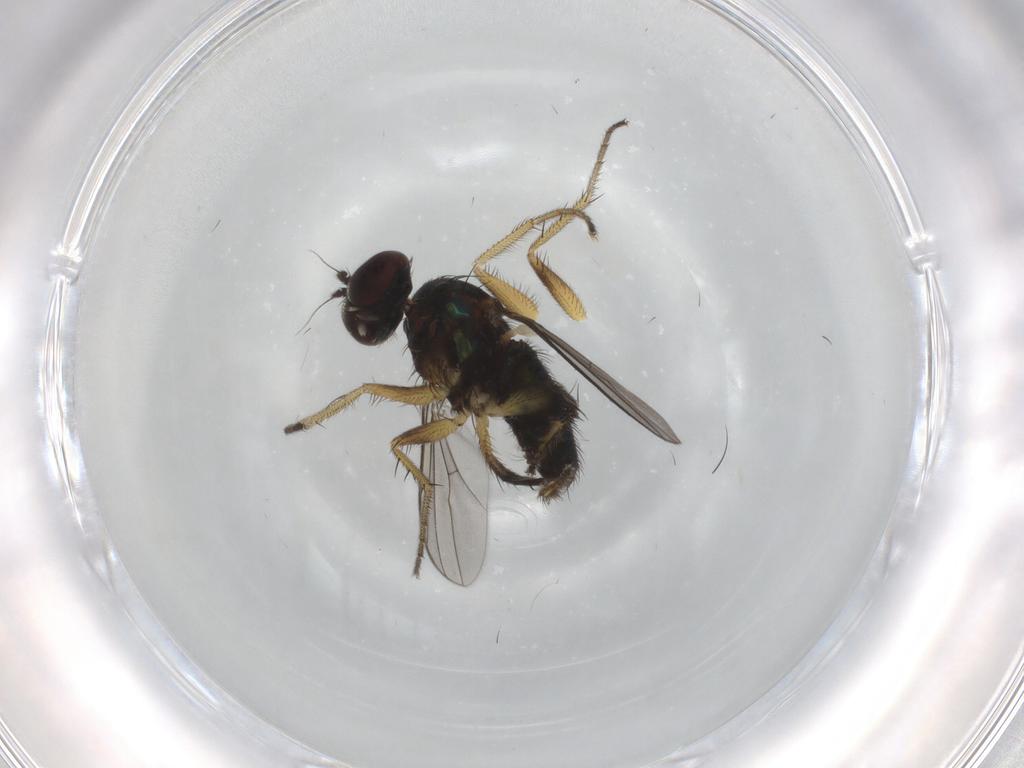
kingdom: Animalia
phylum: Arthropoda
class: Insecta
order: Diptera
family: Dolichopodidae
